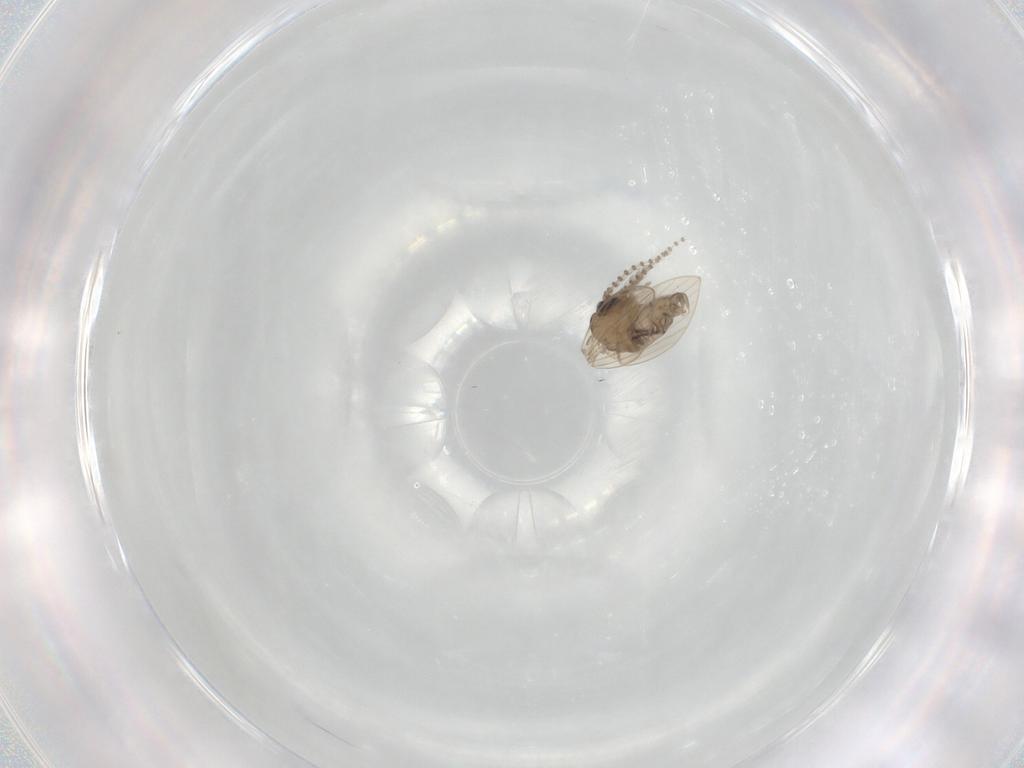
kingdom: Animalia
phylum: Arthropoda
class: Insecta
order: Diptera
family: Psychodidae
